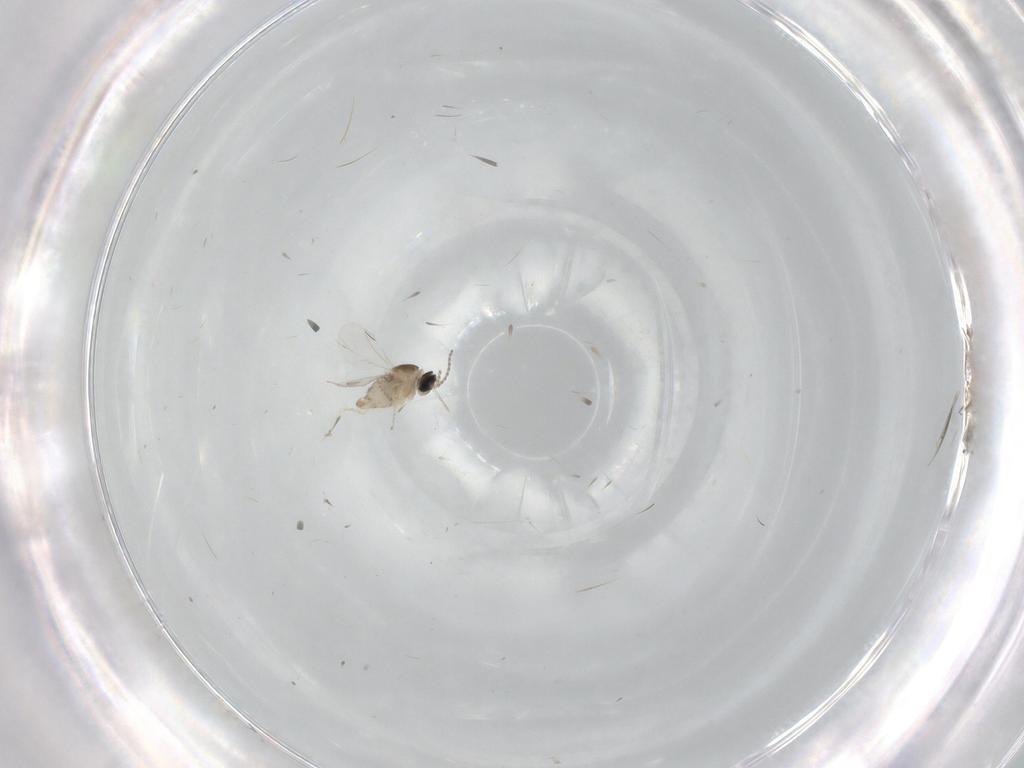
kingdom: Animalia
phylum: Arthropoda
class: Insecta
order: Diptera
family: Cecidomyiidae
